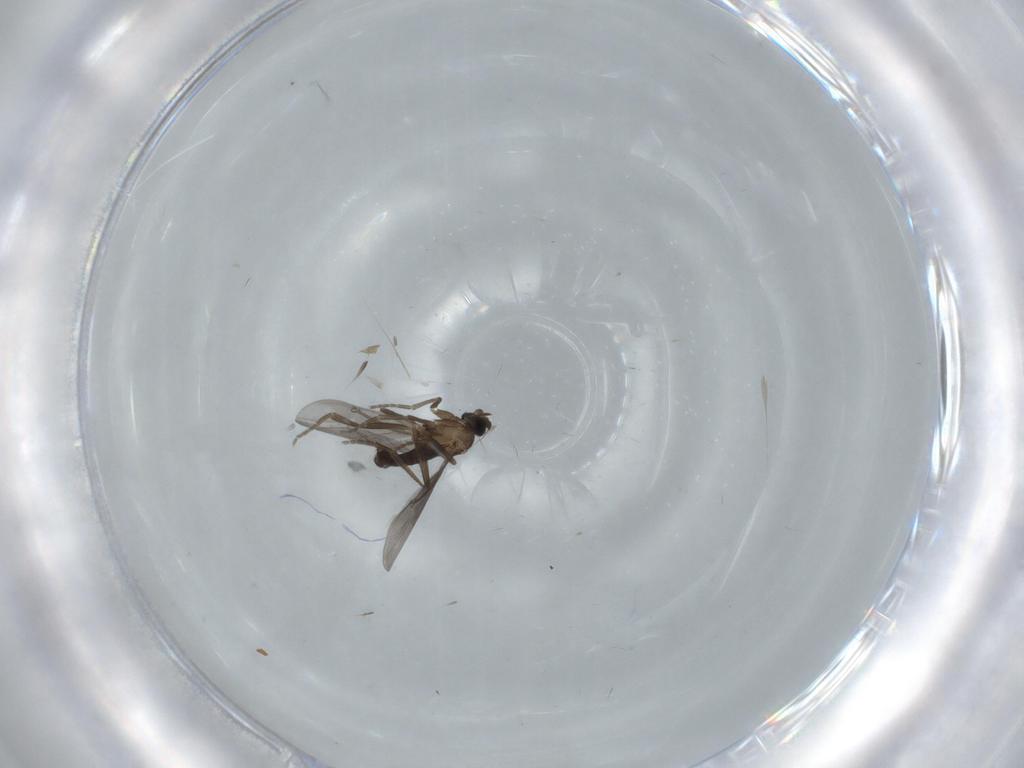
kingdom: Animalia
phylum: Arthropoda
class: Insecta
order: Diptera
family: Phoridae
